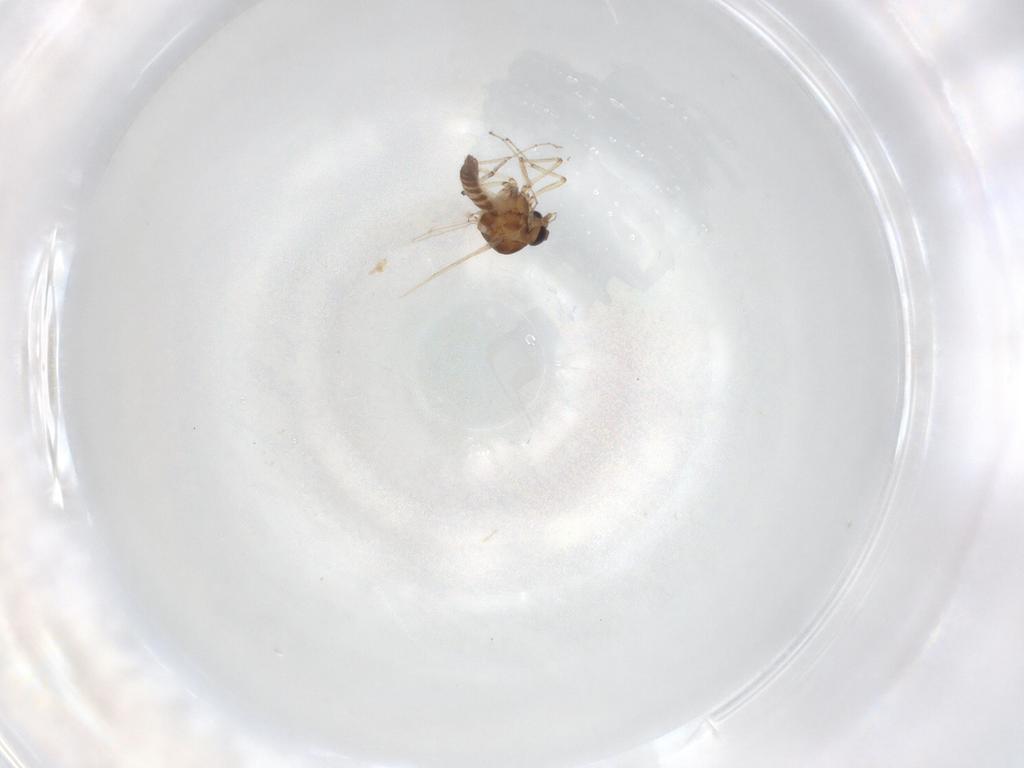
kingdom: Animalia
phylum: Arthropoda
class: Insecta
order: Diptera
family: Ceratopogonidae
